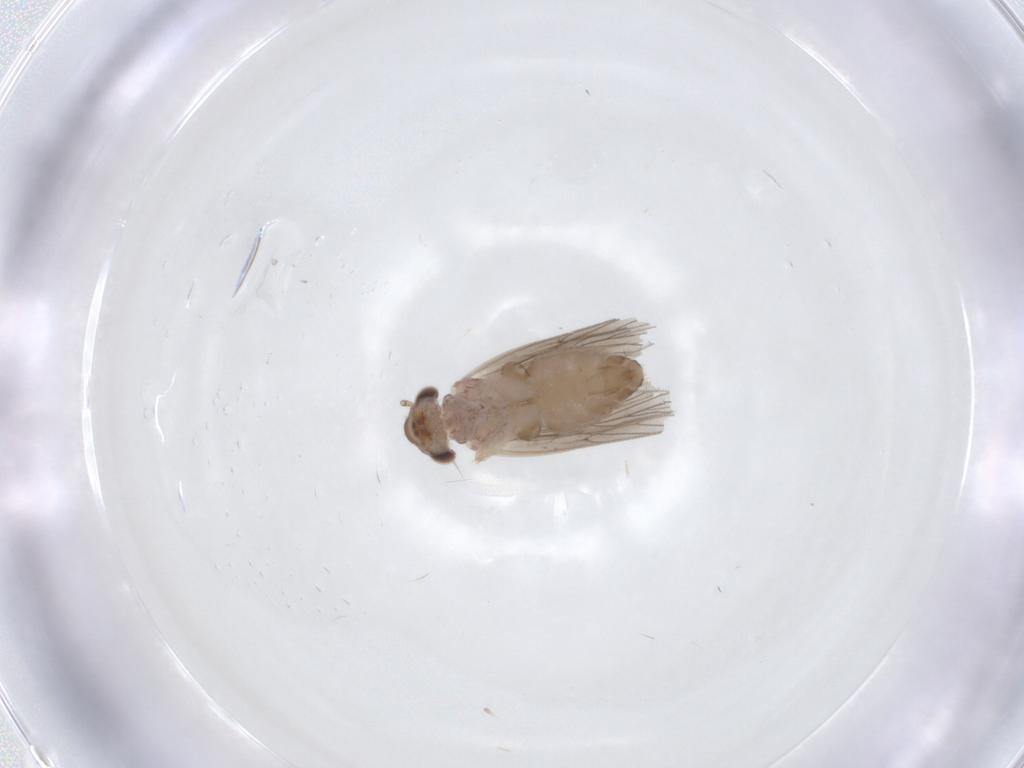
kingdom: Animalia
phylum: Arthropoda
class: Insecta
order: Psocodea
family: Lepidopsocidae
